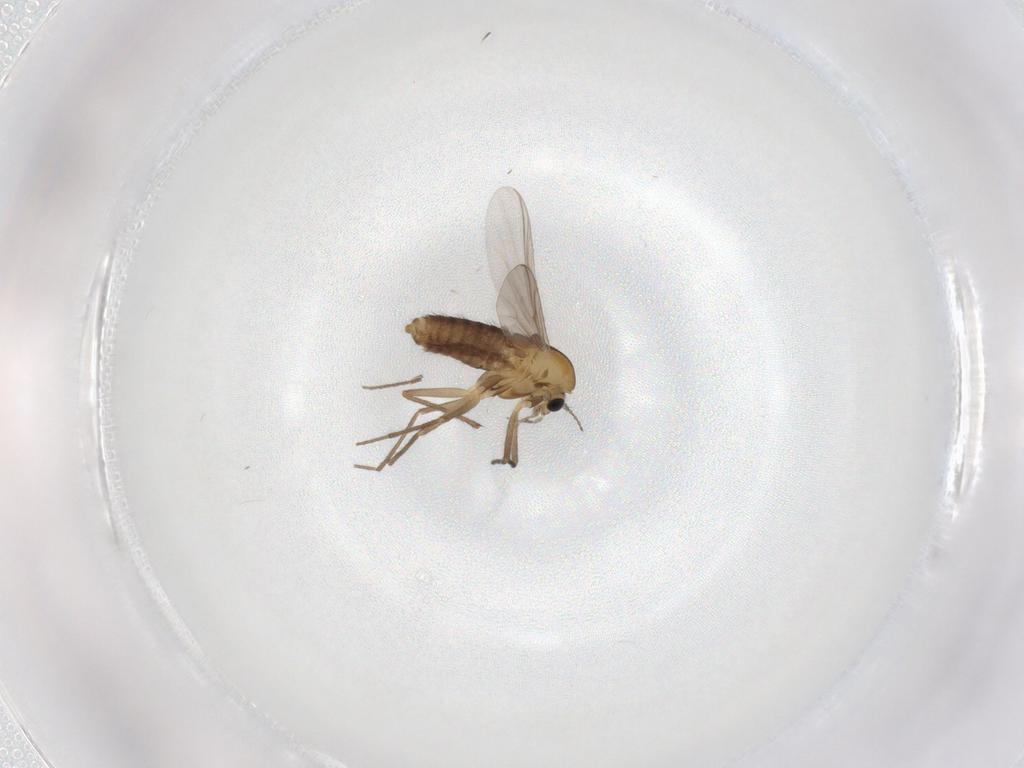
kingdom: Animalia
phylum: Arthropoda
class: Insecta
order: Diptera
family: Chironomidae
